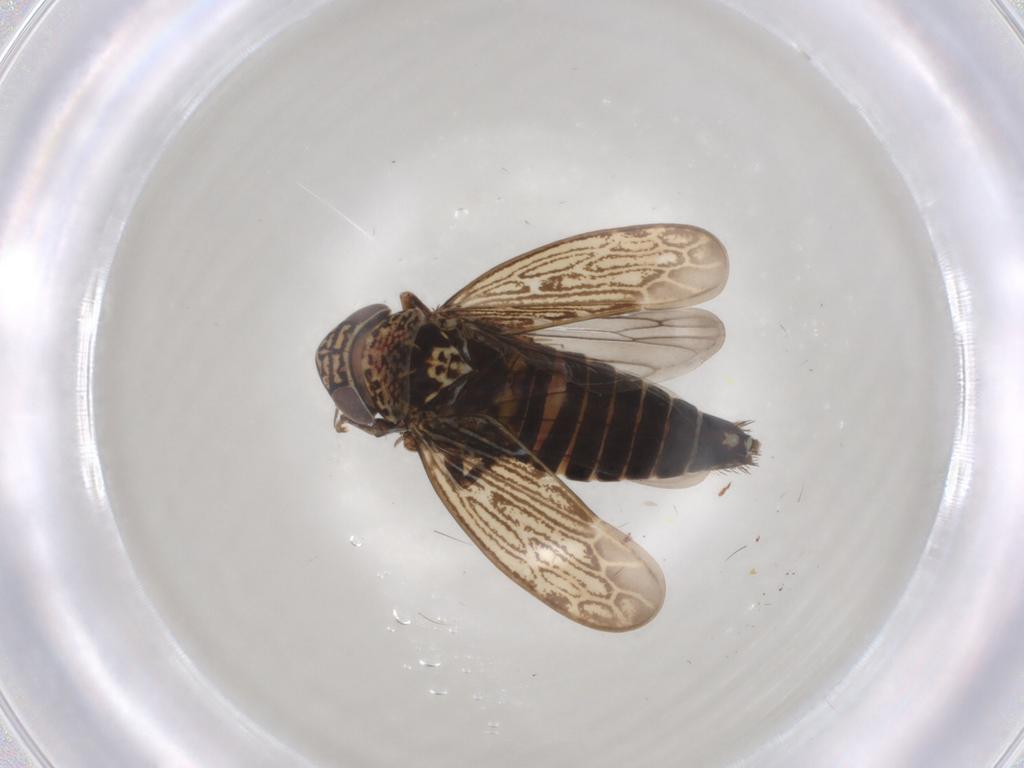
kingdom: Animalia
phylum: Arthropoda
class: Insecta
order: Hemiptera
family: Cicadellidae
